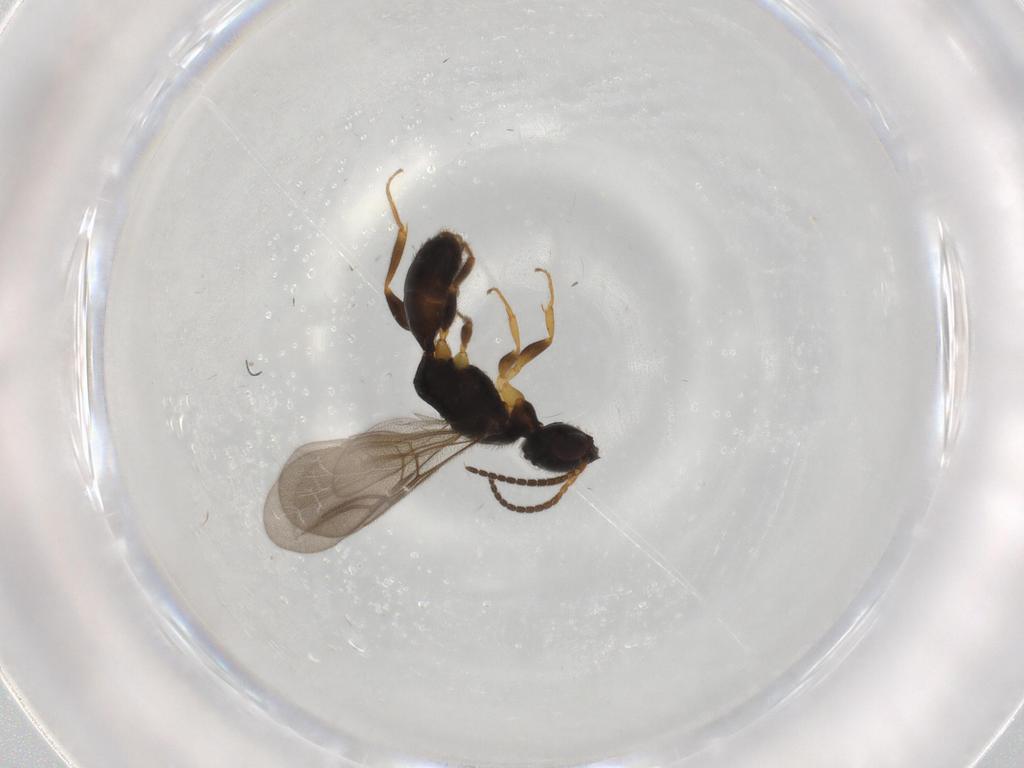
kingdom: Animalia
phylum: Arthropoda
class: Insecta
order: Hymenoptera
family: Bethylidae
